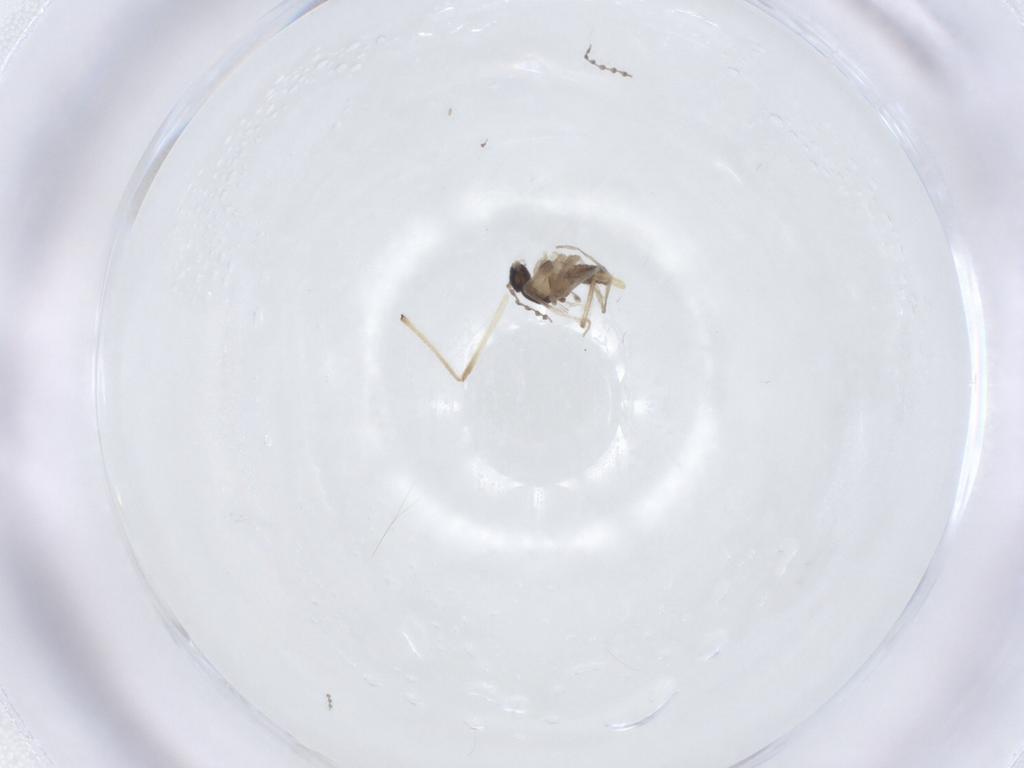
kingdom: Animalia
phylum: Arthropoda
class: Insecta
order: Diptera
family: Chironomidae
